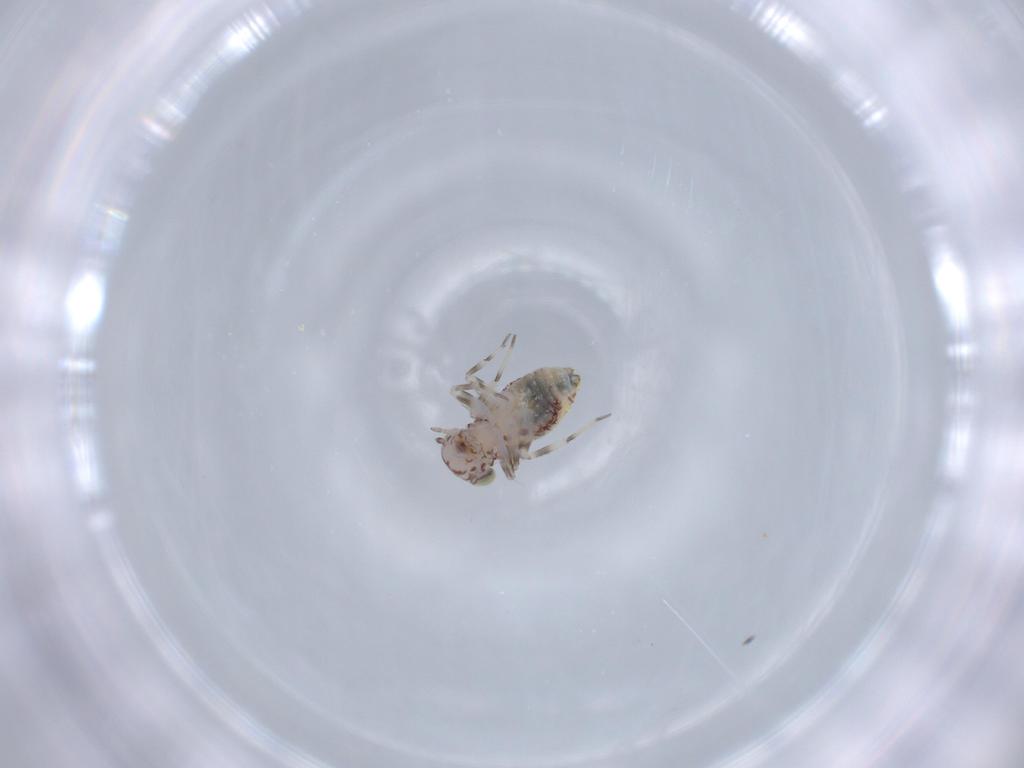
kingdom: Animalia
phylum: Arthropoda
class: Insecta
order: Psocodea
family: Amphientomidae
